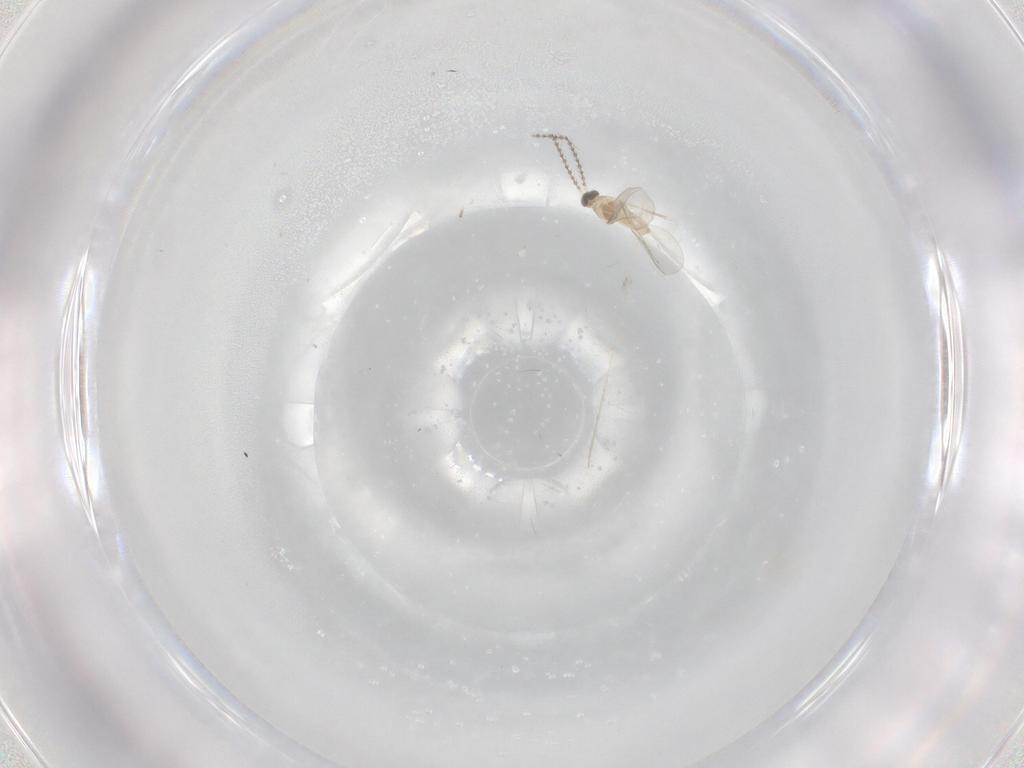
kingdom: Animalia
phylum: Arthropoda
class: Insecta
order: Diptera
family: Cecidomyiidae
